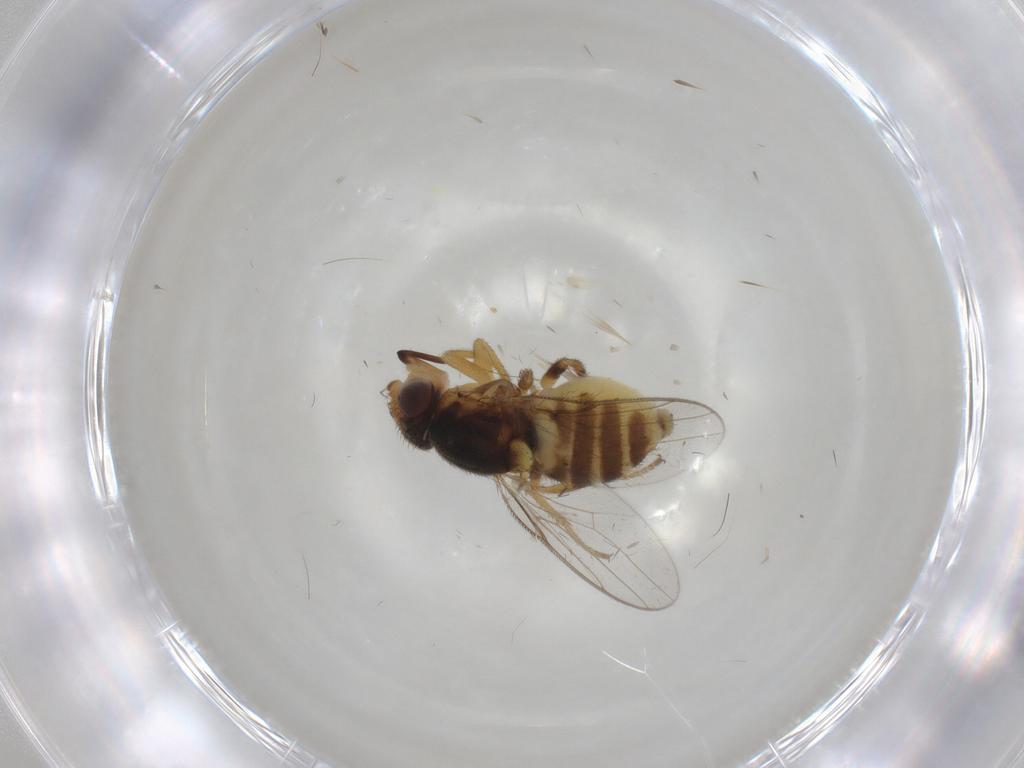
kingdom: Animalia
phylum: Arthropoda
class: Insecta
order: Diptera
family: Chloropidae
